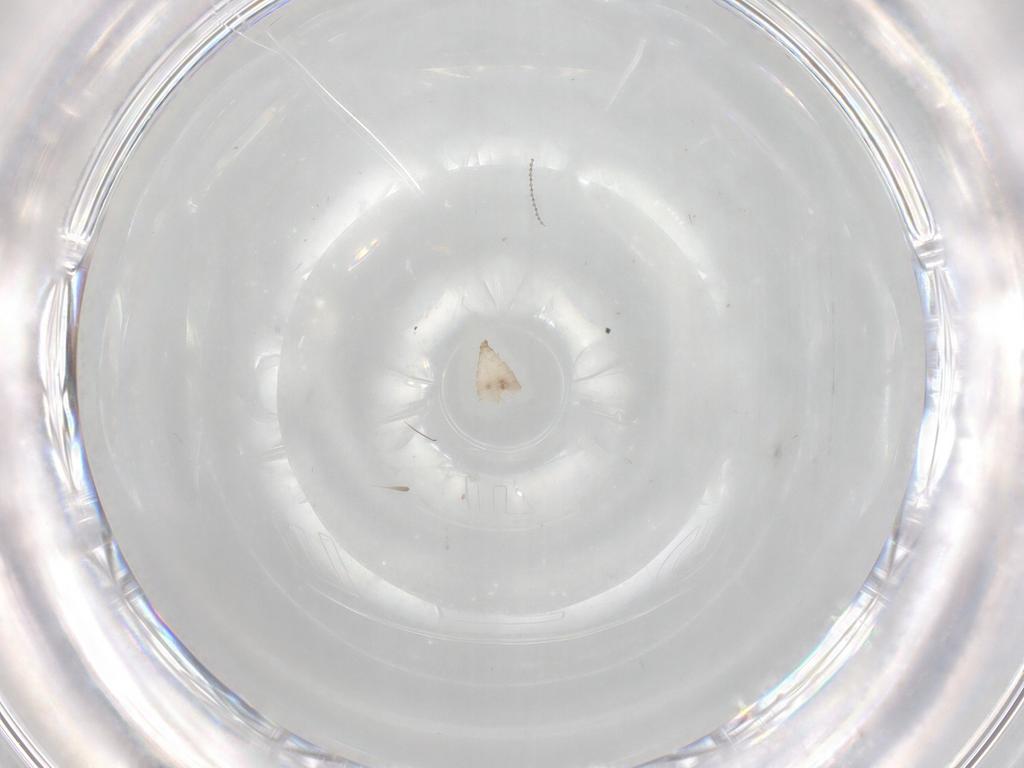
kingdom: Animalia
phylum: Arthropoda
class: Insecta
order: Diptera
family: Cecidomyiidae
